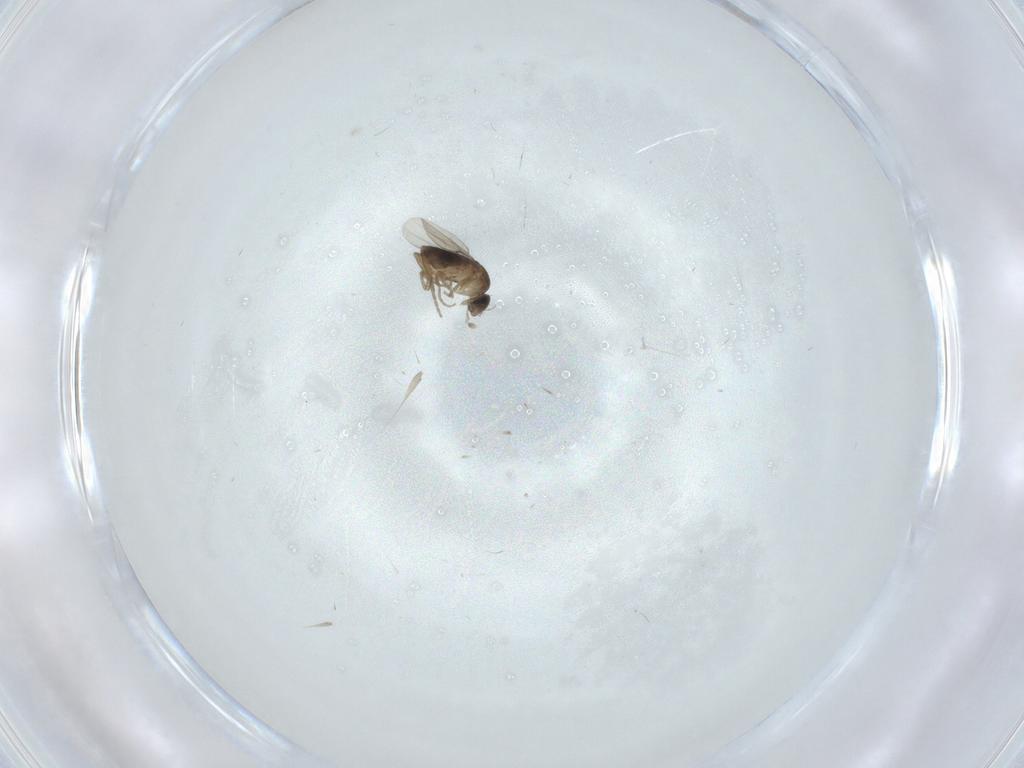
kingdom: Animalia
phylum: Arthropoda
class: Insecta
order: Diptera
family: Phoridae
